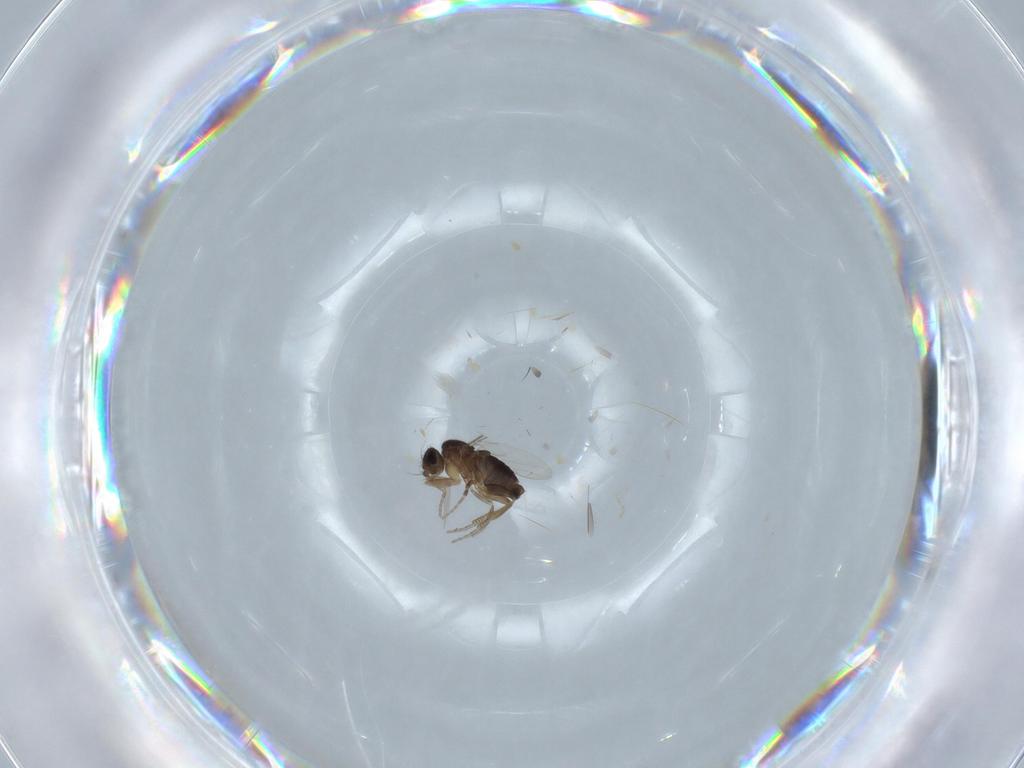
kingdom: Animalia
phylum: Arthropoda
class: Insecta
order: Diptera
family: Phoridae
